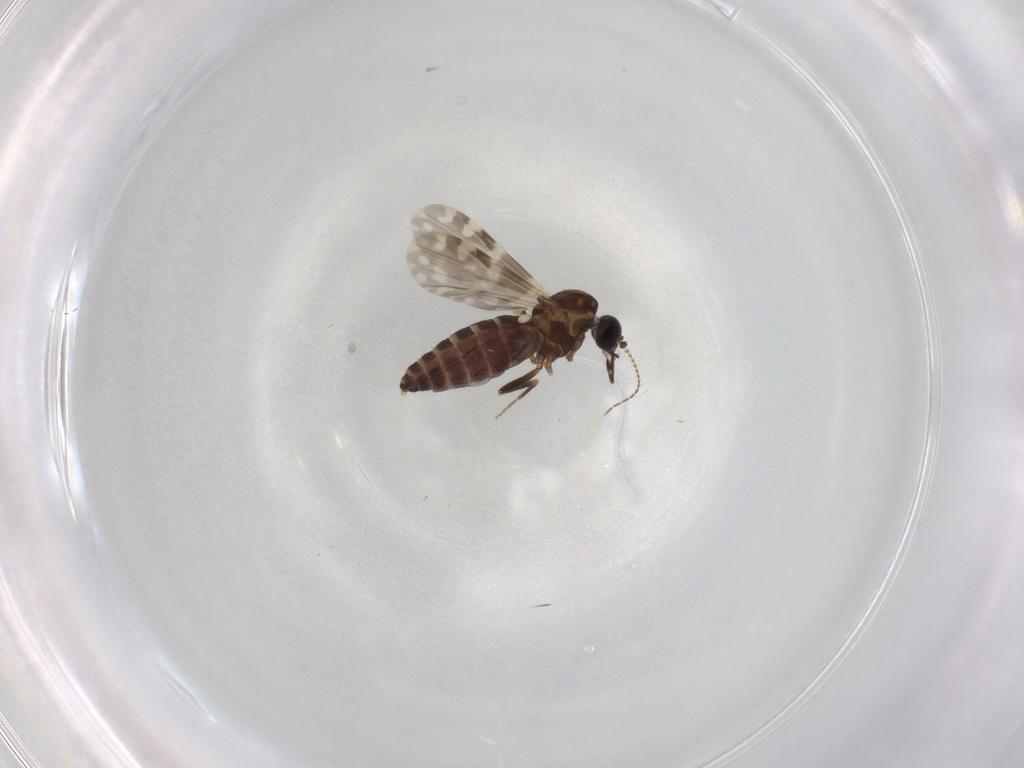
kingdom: Animalia
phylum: Arthropoda
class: Insecta
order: Diptera
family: Ceratopogonidae
